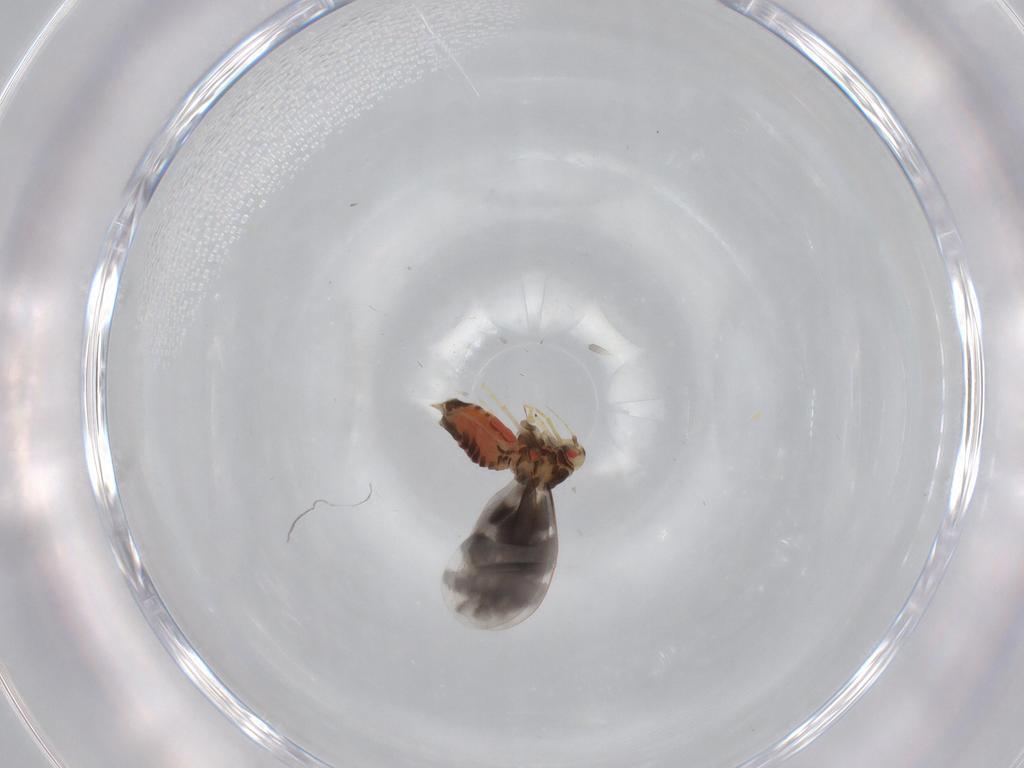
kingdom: Animalia
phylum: Arthropoda
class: Insecta
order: Hemiptera
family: Aleyrodidae
